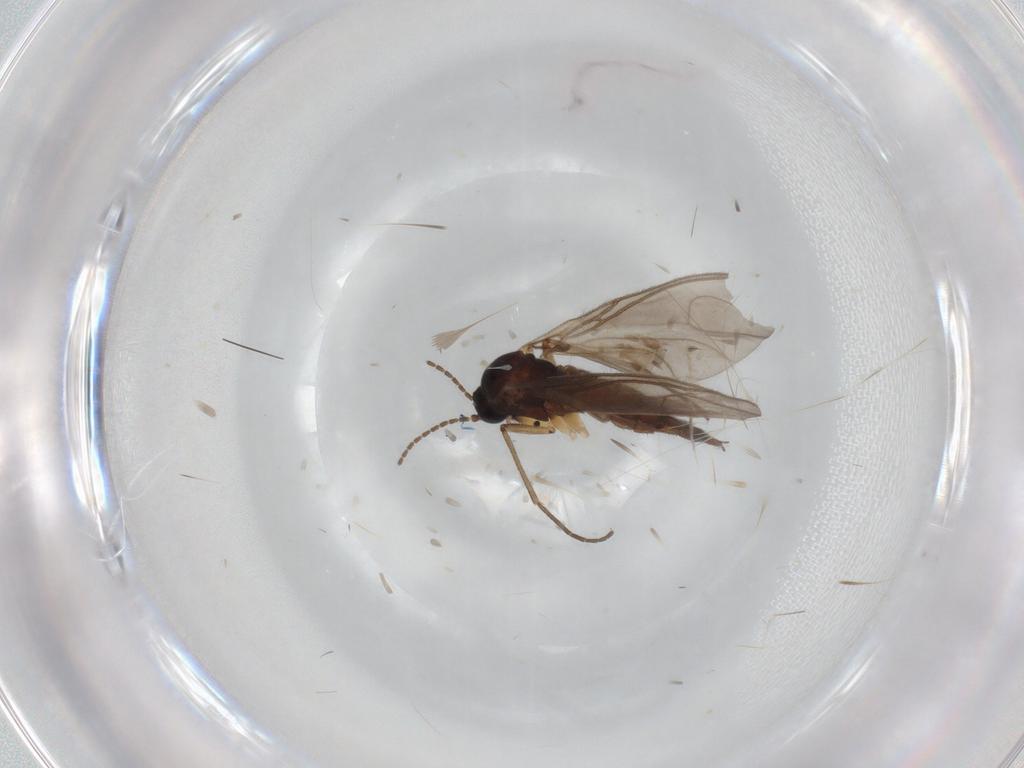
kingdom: Animalia
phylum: Arthropoda
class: Insecta
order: Diptera
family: Sciaridae
